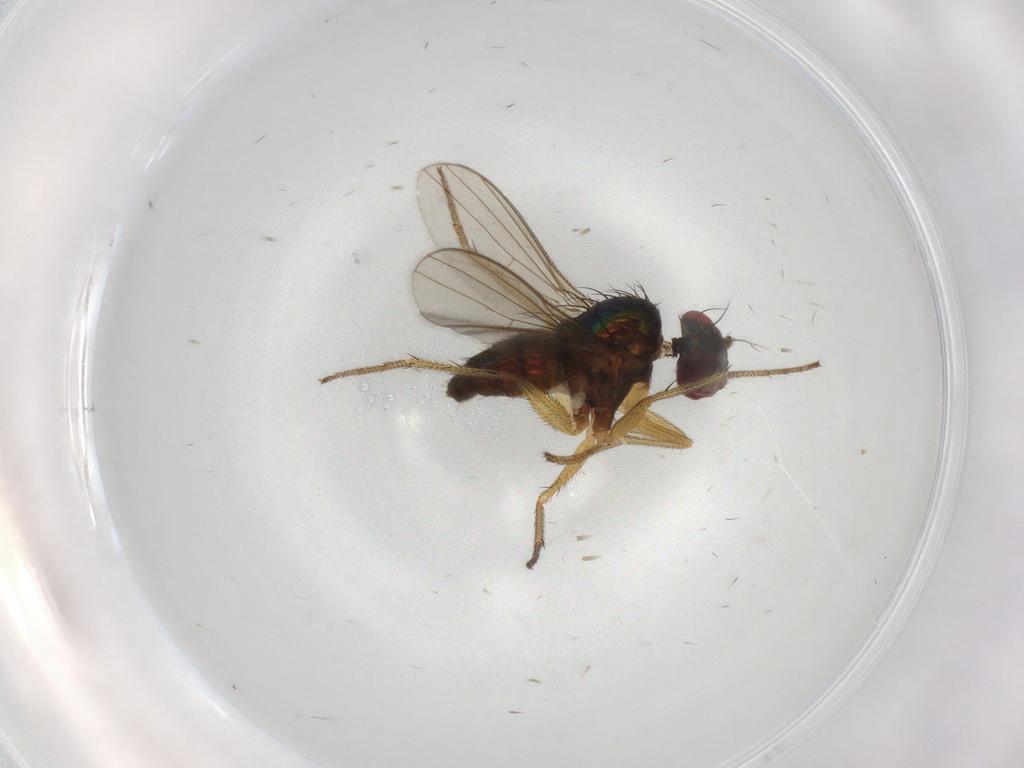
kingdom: Animalia
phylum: Arthropoda
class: Insecta
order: Diptera
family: Dolichopodidae
